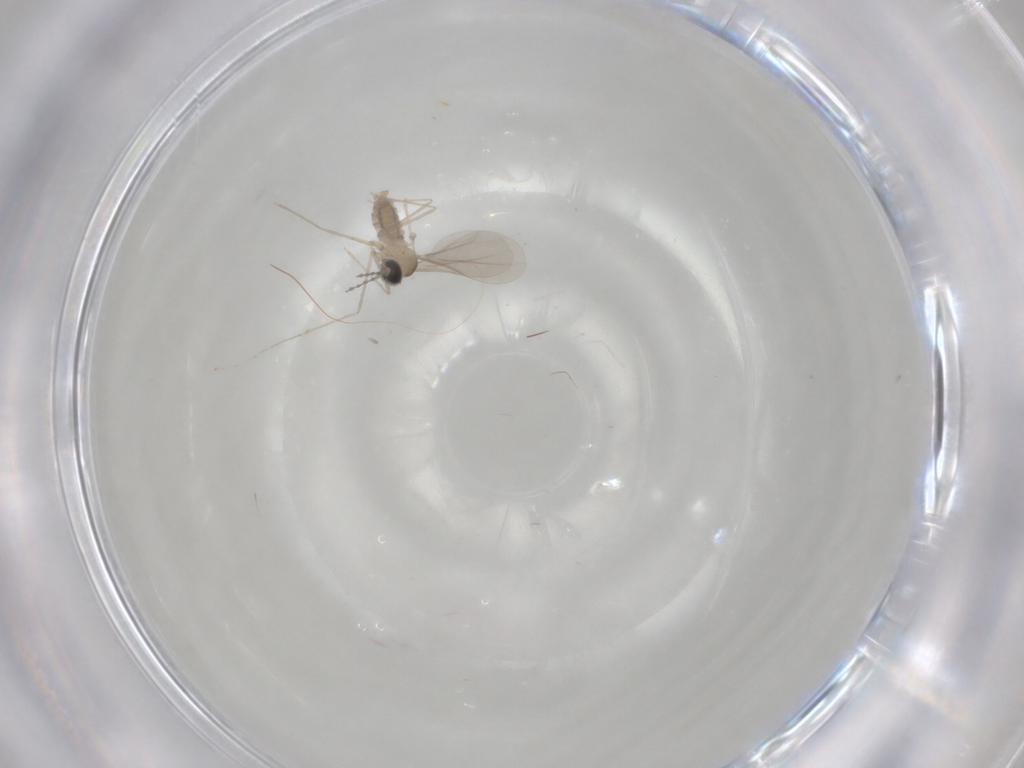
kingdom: Animalia
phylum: Arthropoda
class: Insecta
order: Diptera
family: Cecidomyiidae
